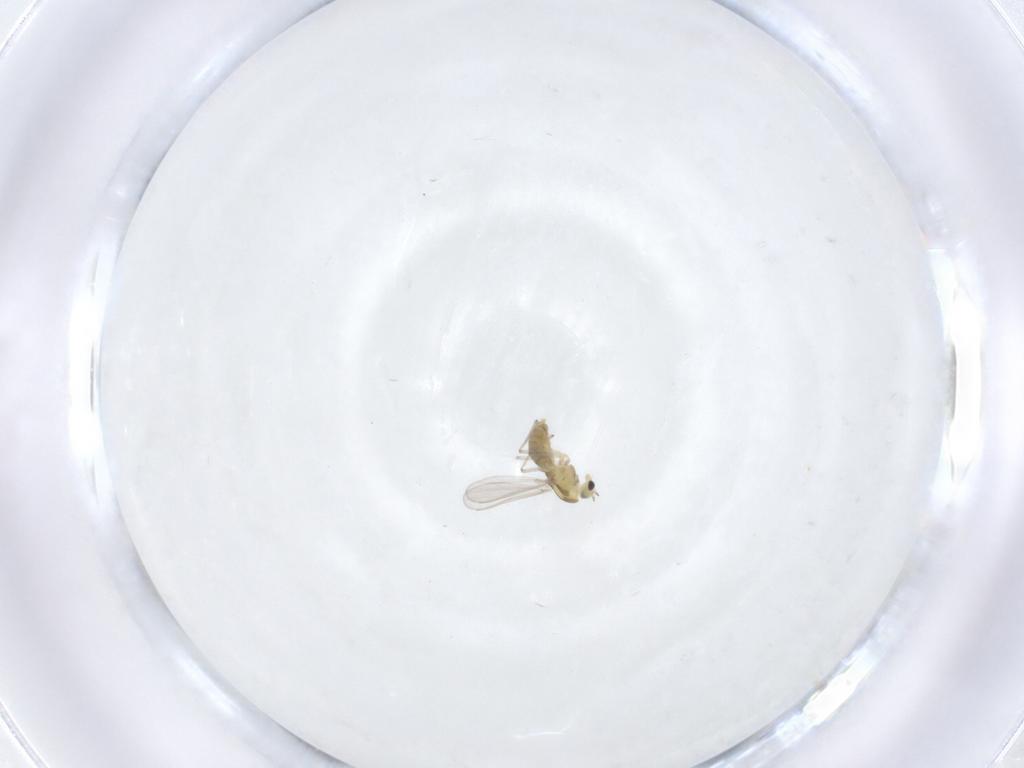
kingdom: Animalia
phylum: Arthropoda
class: Insecta
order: Diptera
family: Chironomidae
